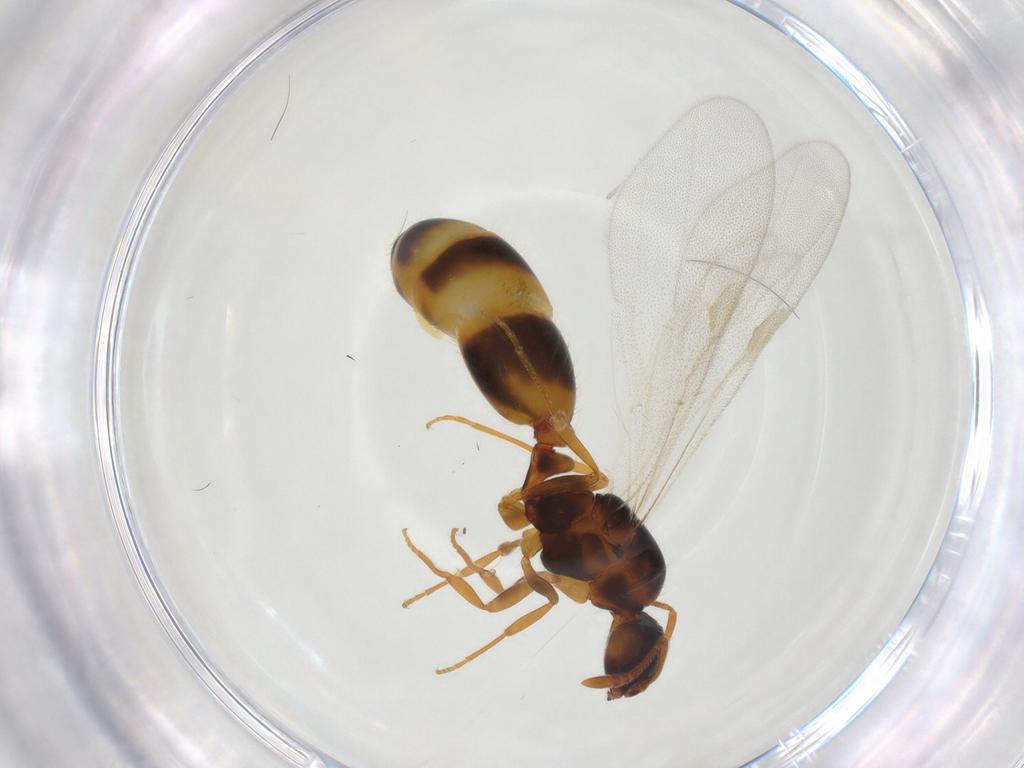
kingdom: Animalia
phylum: Arthropoda
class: Insecta
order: Hymenoptera
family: Formicidae
